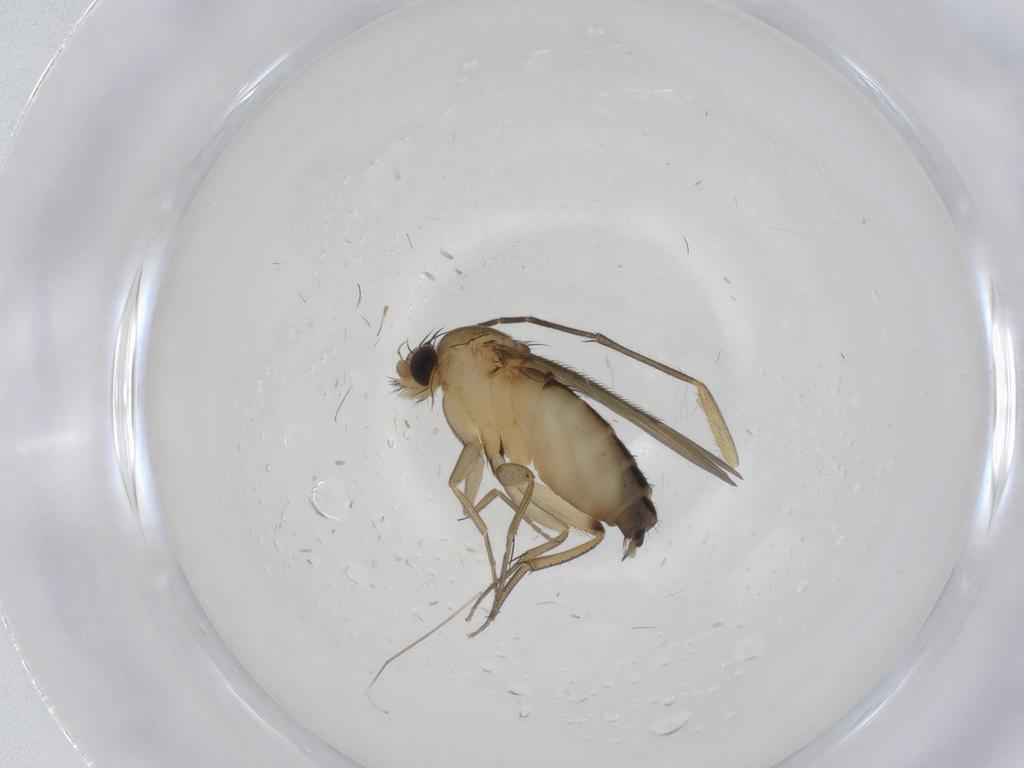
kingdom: Animalia
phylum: Arthropoda
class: Insecta
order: Diptera
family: Phoridae
